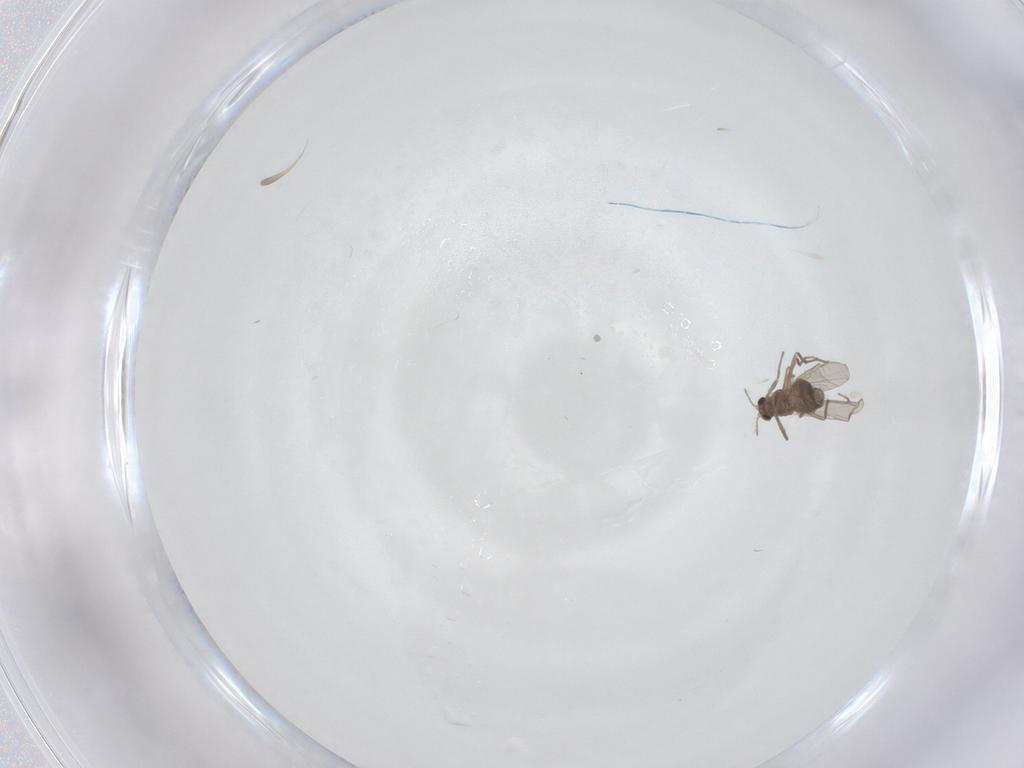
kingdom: Animalia
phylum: Arthropoda
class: Insecta
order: Diptera
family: Chironomidae
